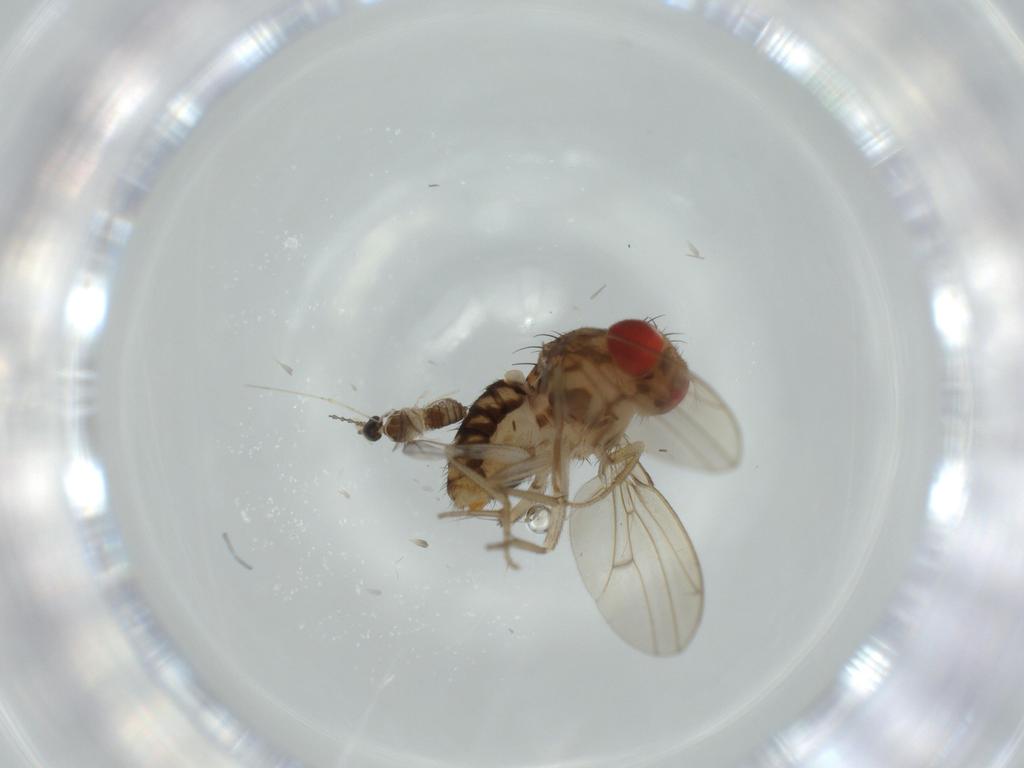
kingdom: Animalia
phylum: Arthropoda
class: Insecta
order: Diptera
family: Drosophilidae
